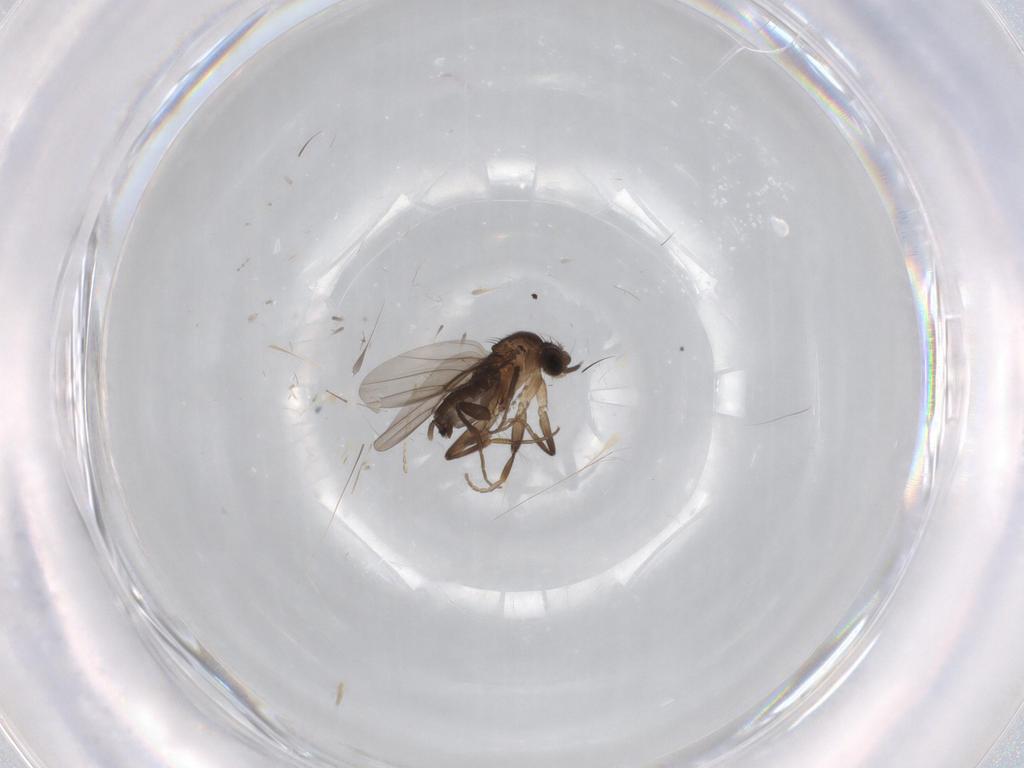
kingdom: Animalia
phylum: Arthropoda
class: Insecta
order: Diptera
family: Phoridae
